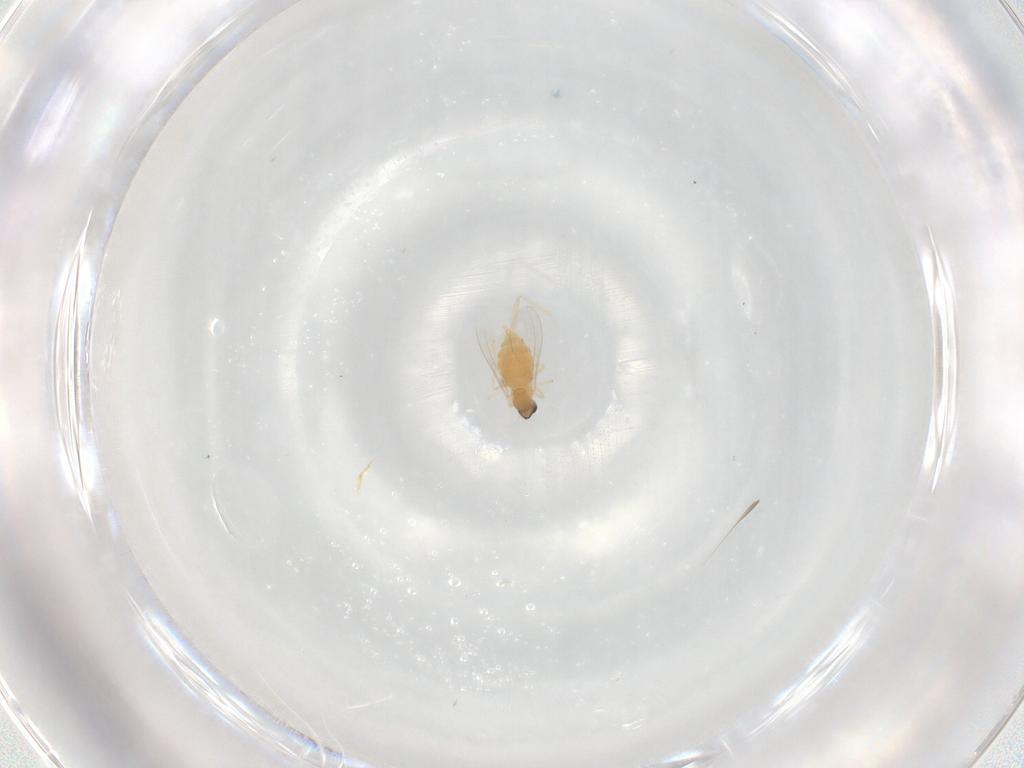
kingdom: Animalia
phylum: Arthropoda
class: Insecta
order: Diptera
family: Cecidomyiidae
